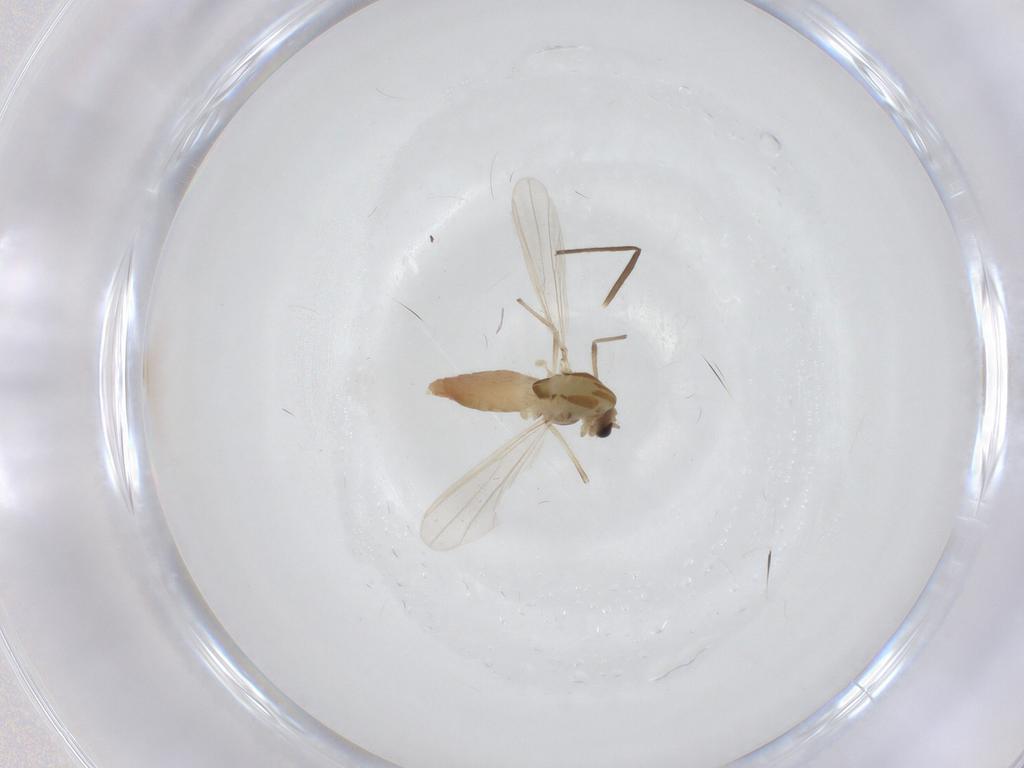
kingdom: Animalia
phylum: Arthropoda
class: Insecta
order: Diptera
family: Chironomidae
